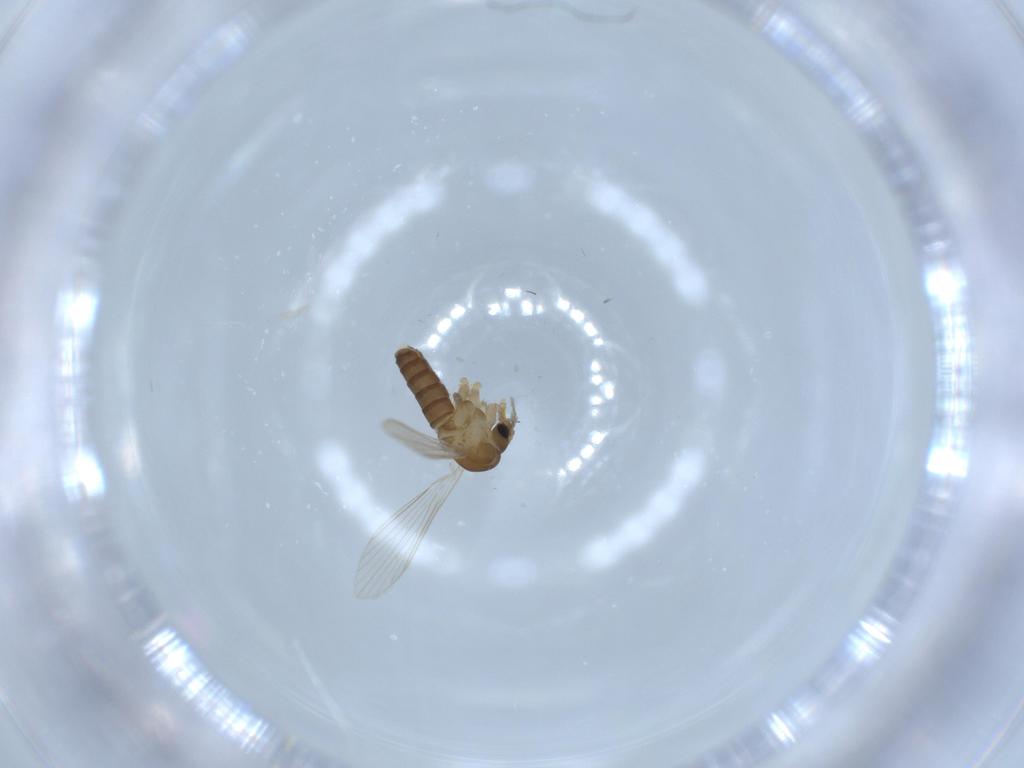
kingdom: Animalia
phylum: Arthropoda
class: Insecta
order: Diptera
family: Psychodidae
